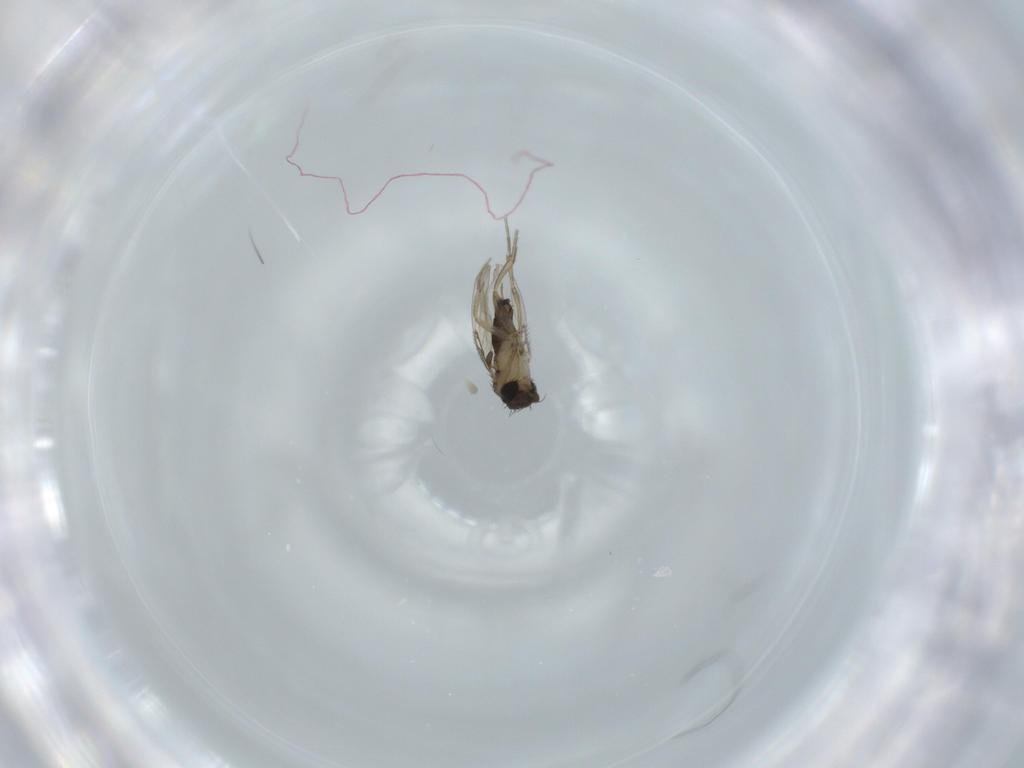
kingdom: Animalia
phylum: Arthropoda
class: Insecta
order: Diptera
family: Phoridae
